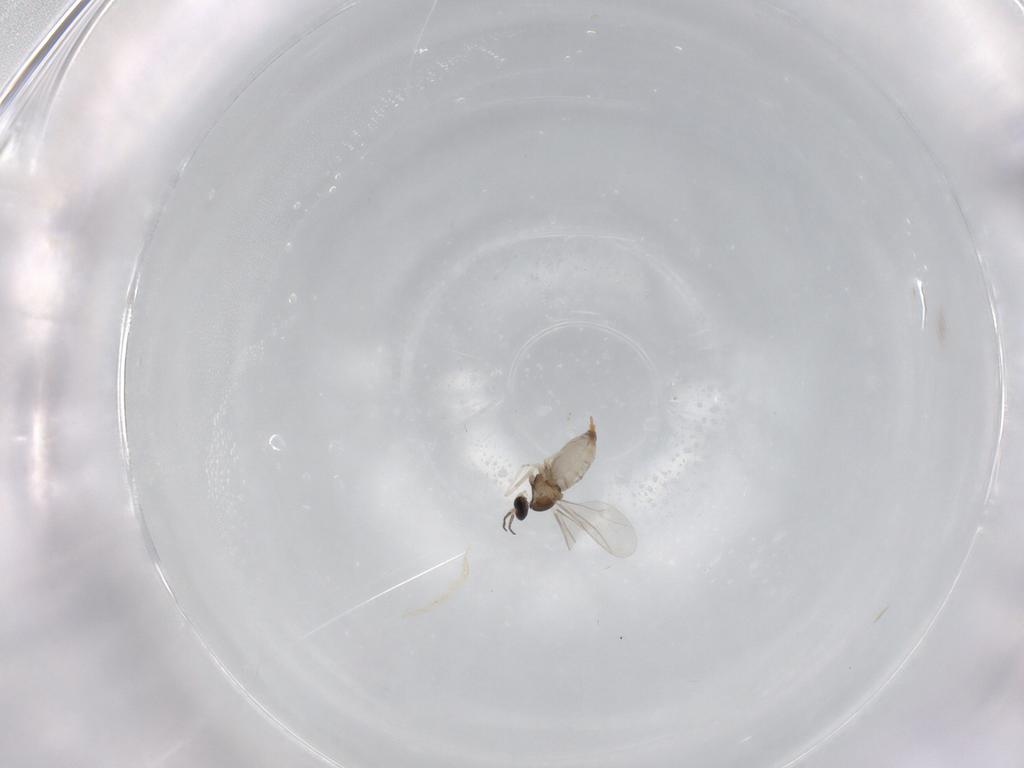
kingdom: Animalia
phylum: Arthropoda
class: Insecta
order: Diptera
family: Cecidomyiidae
